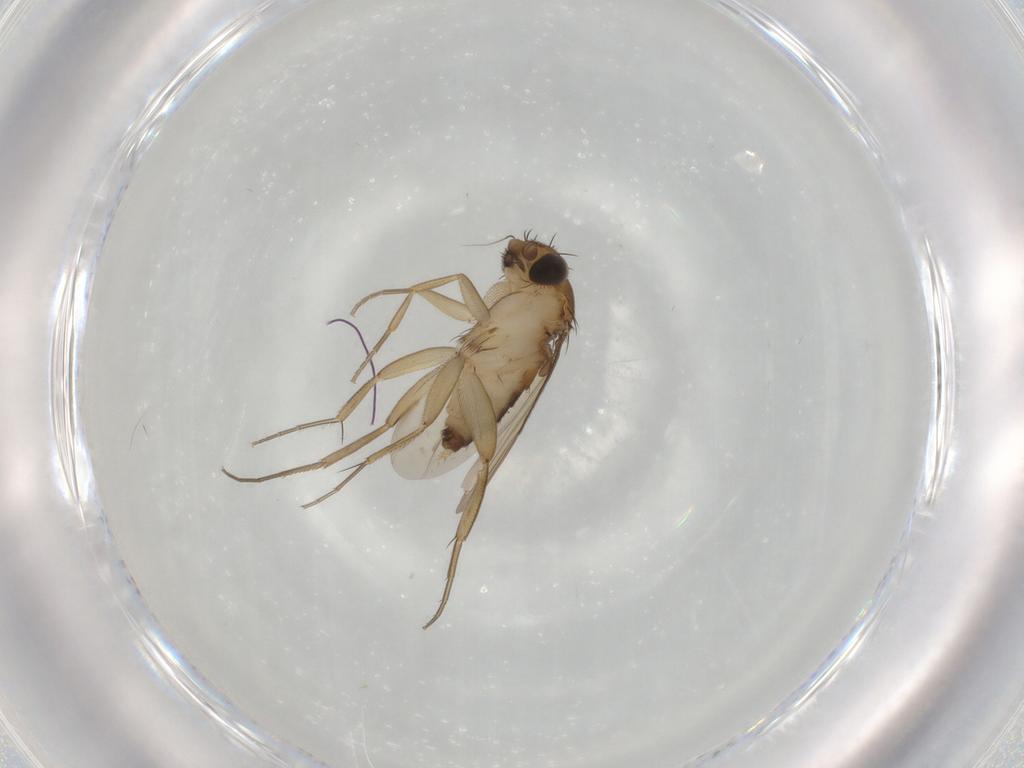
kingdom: Animalia
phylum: Arthropoda
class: Insecta
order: Diptera
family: Phoridae
